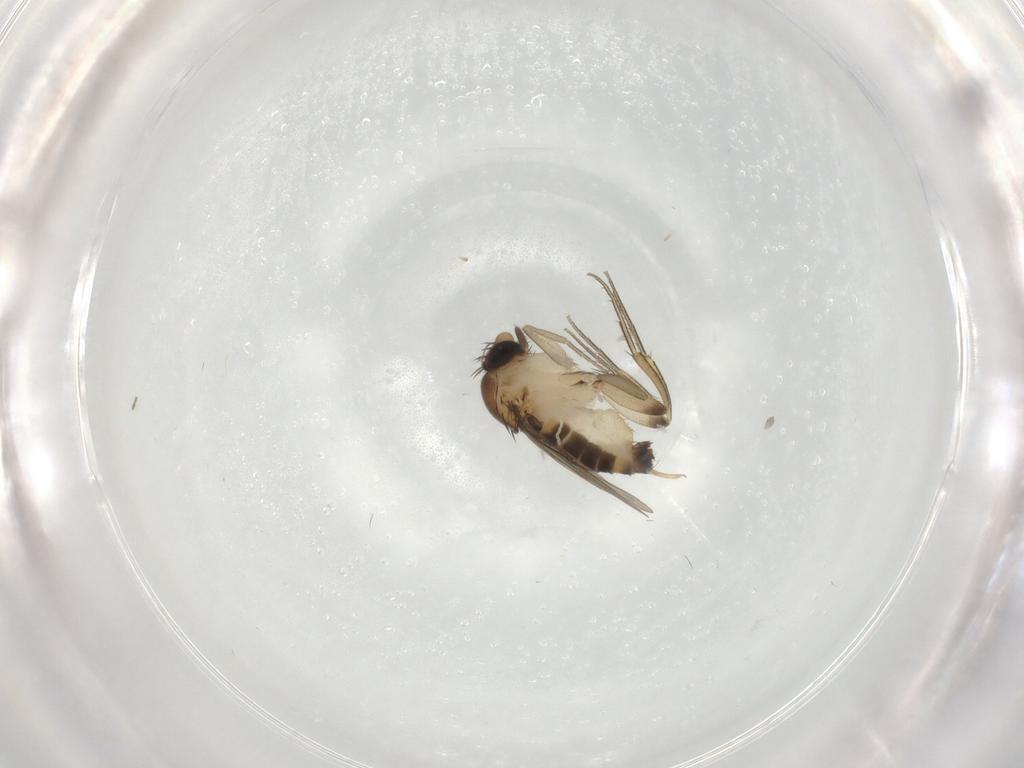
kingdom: Animalia
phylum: Arthropoda
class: Insecta
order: Diptera
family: Phoridae
